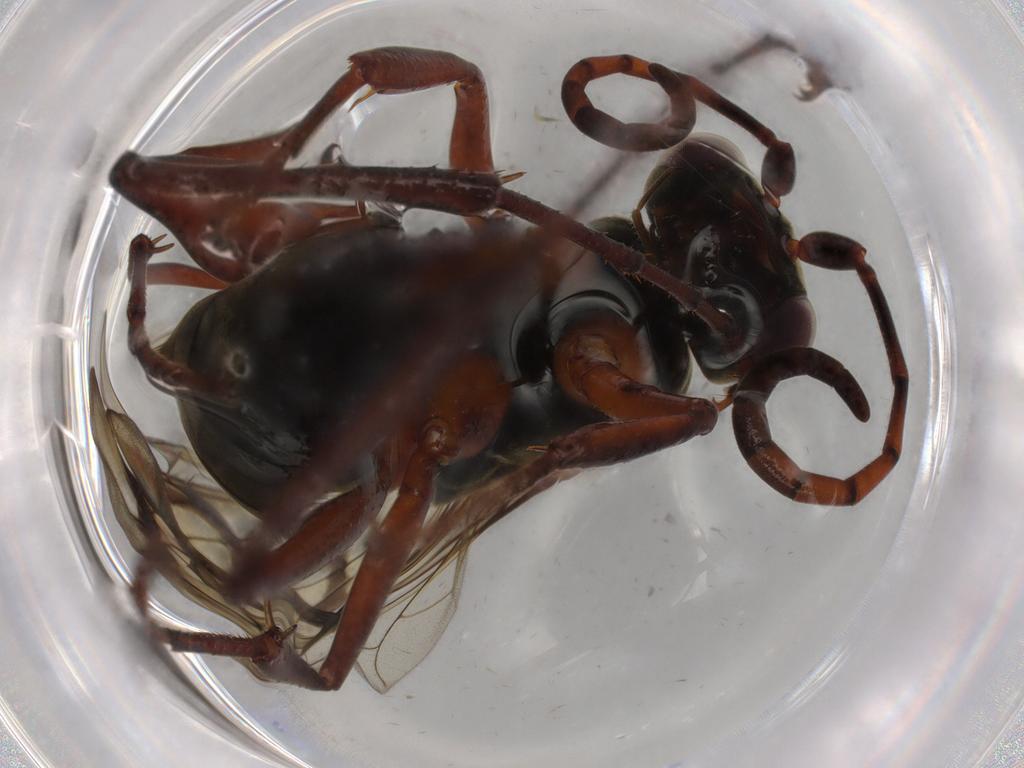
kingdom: Animalia
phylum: Arthropoda
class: Insecta
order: Hymenoptera
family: Pompilidae
